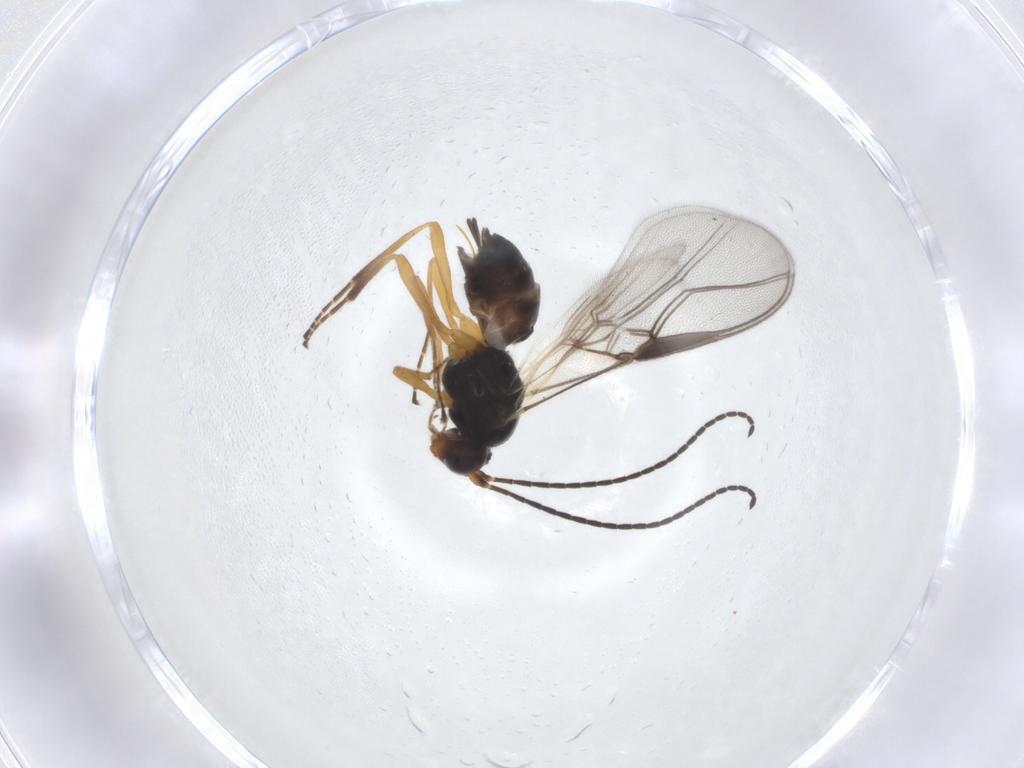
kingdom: Animalia
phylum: Arthropoda
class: Insecta
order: Hymenoptera
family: Braconidae
